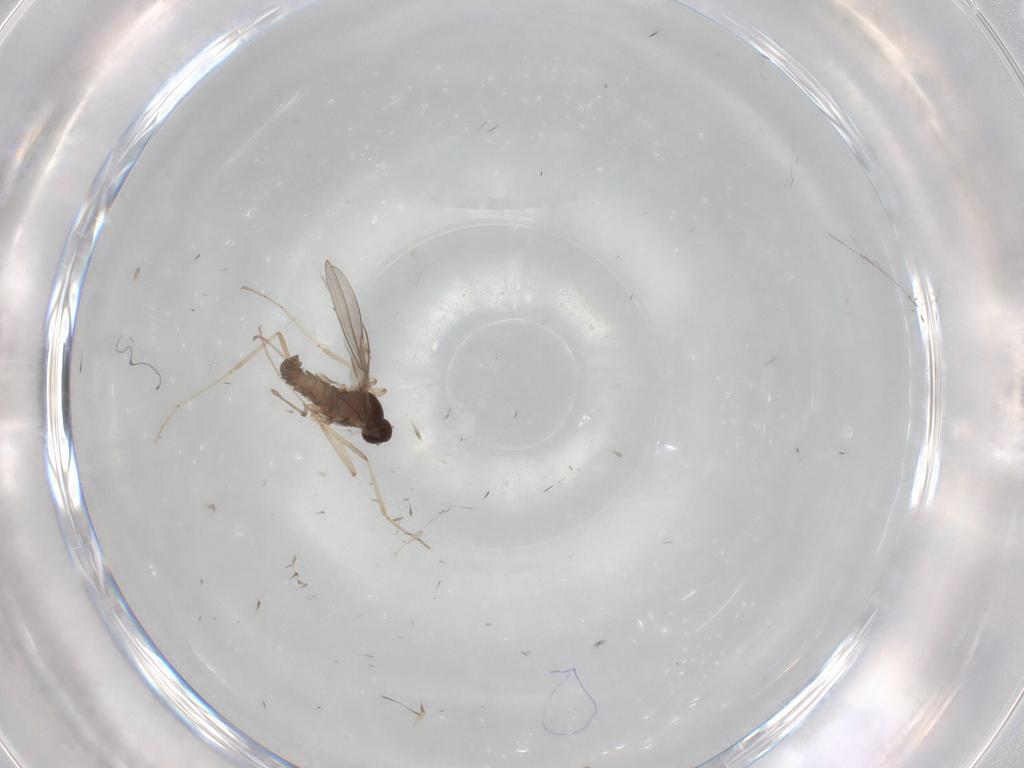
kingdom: Animalia
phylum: Arthropoda
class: Insecta
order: Diptera
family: Cecidomyiidae
